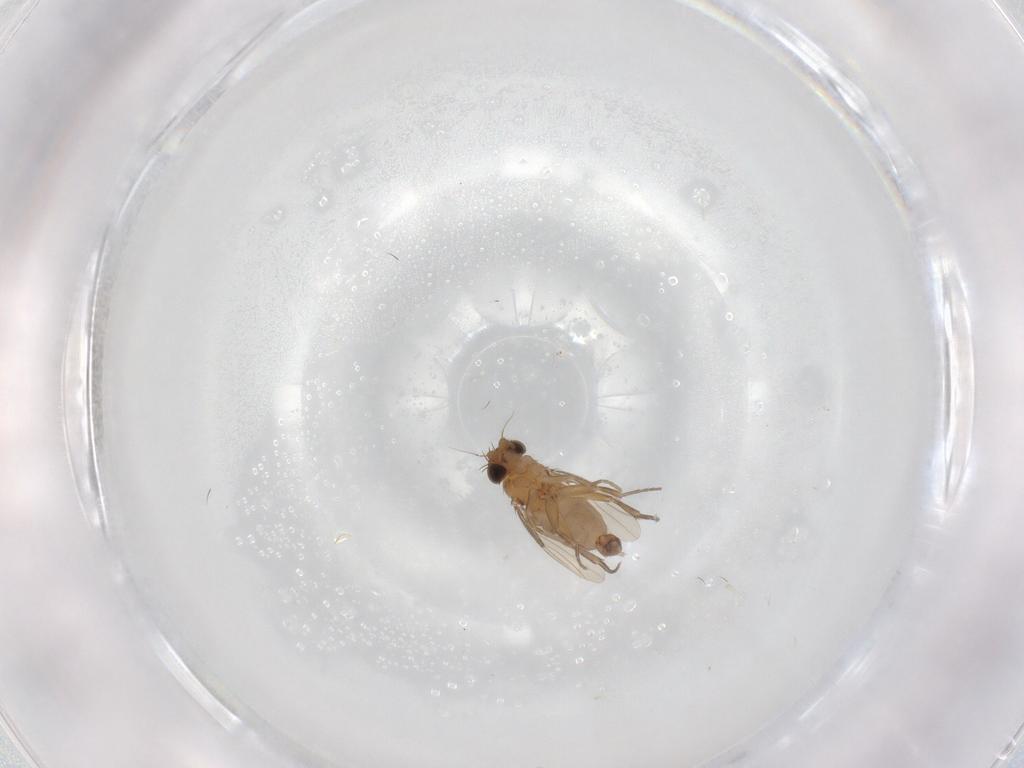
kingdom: Animalia
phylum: Arthropoda
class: Insecta
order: Diptera
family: Phoridae
